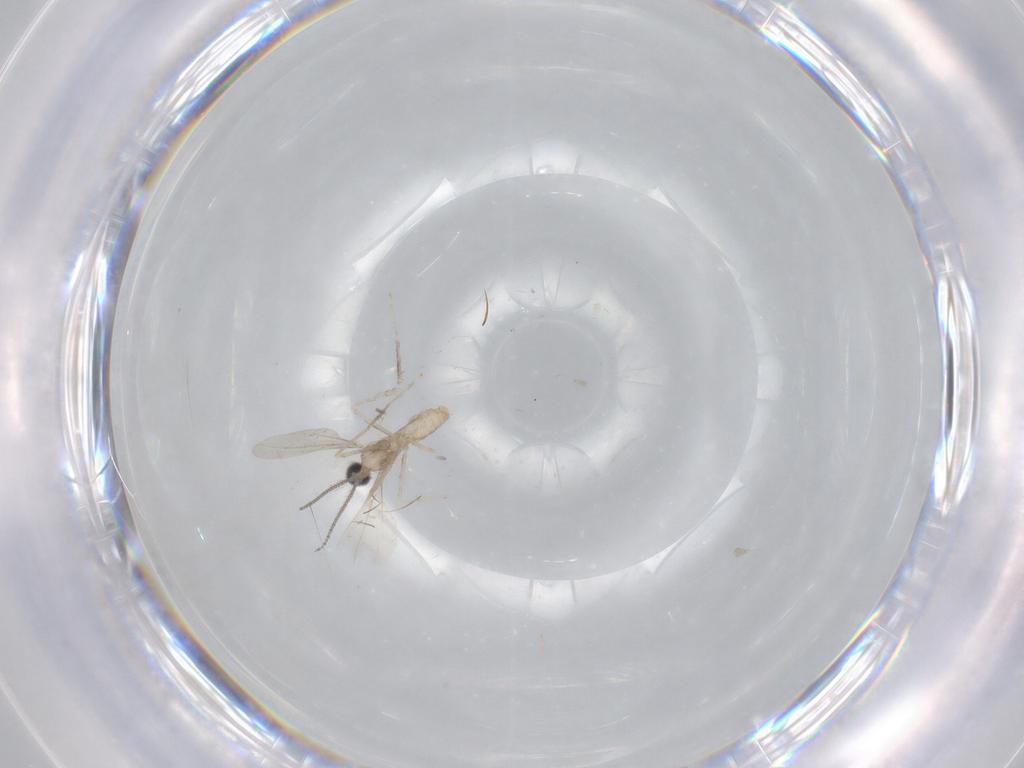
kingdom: Animalia
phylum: Arthropoda
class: Insecta
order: Diptera
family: Cecidomyiidae
